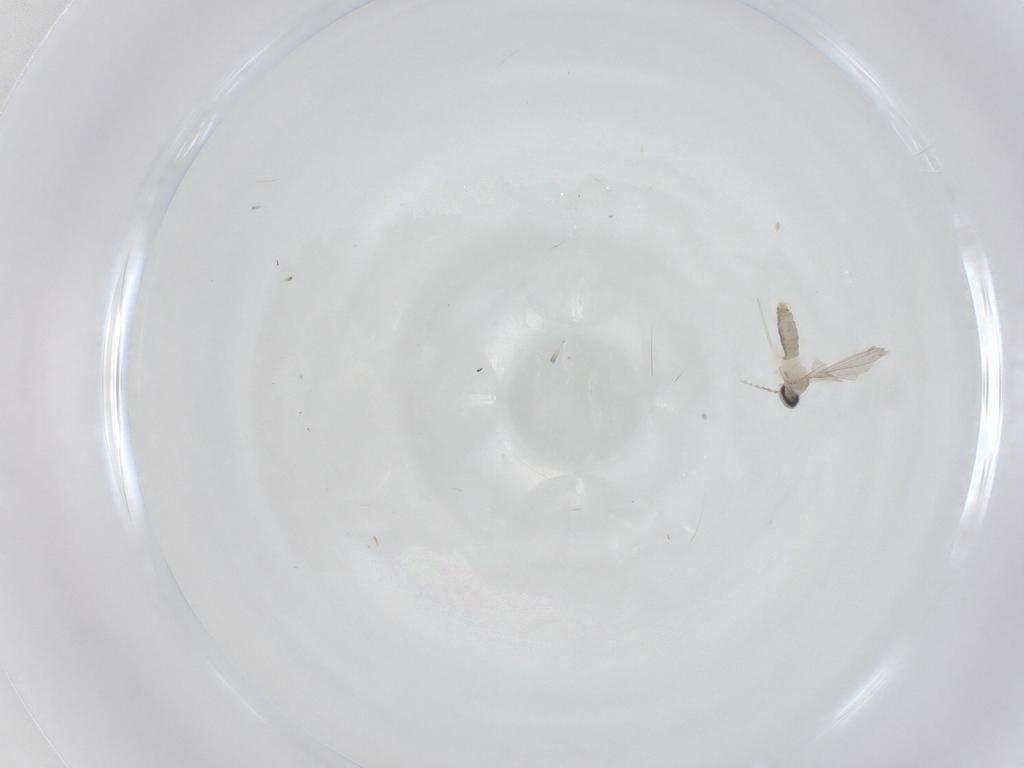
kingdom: Animalia
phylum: Arthropoda
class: Insecta
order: Diptera
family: Cecidomyiidae
